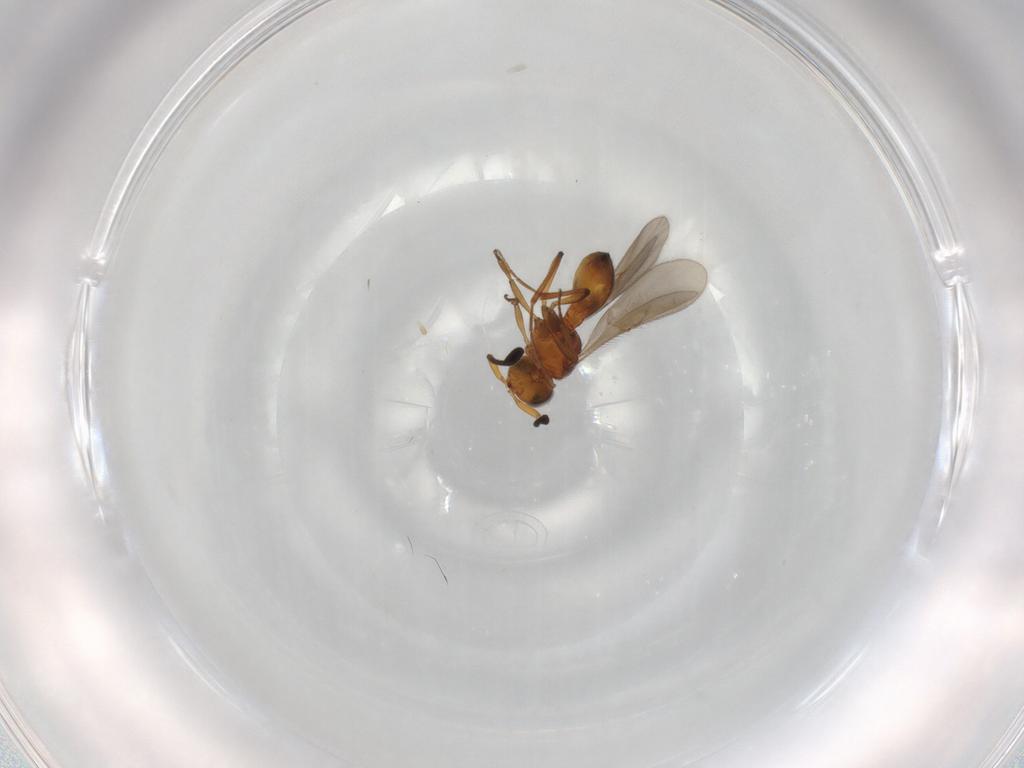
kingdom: Animalia
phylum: Arthropoda
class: Insecta
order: Hymenoptera
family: Scelionidae
